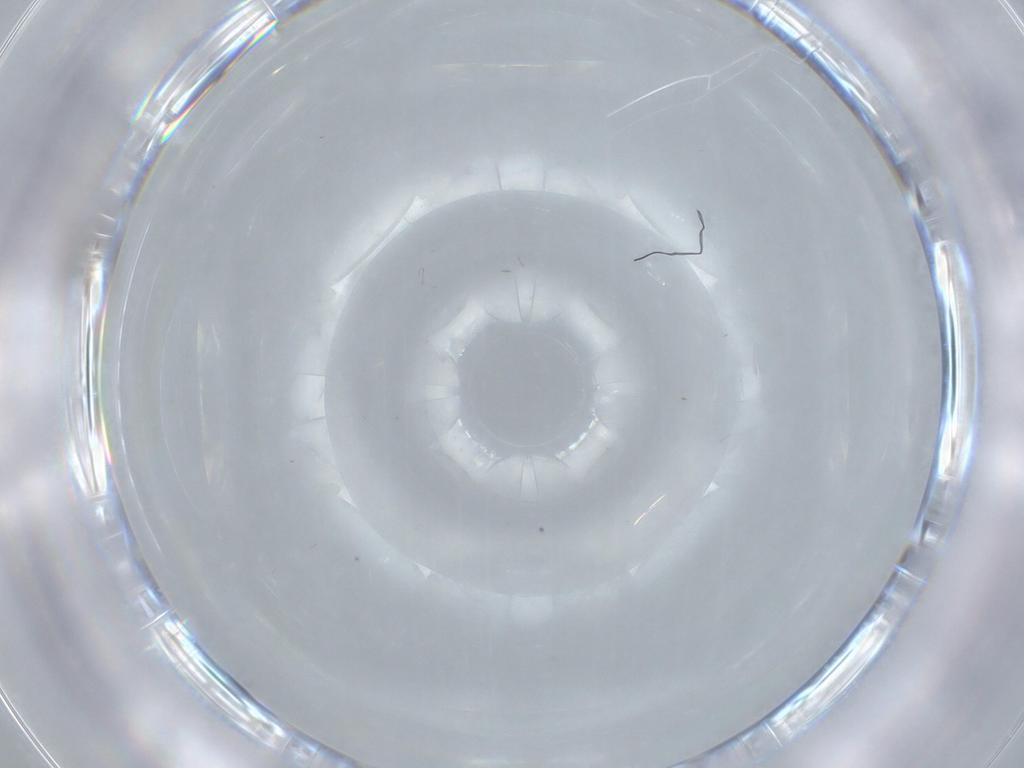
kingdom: Animalia
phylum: Arthropoda
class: Insecta
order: Diptera
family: Cecidomyiidae
